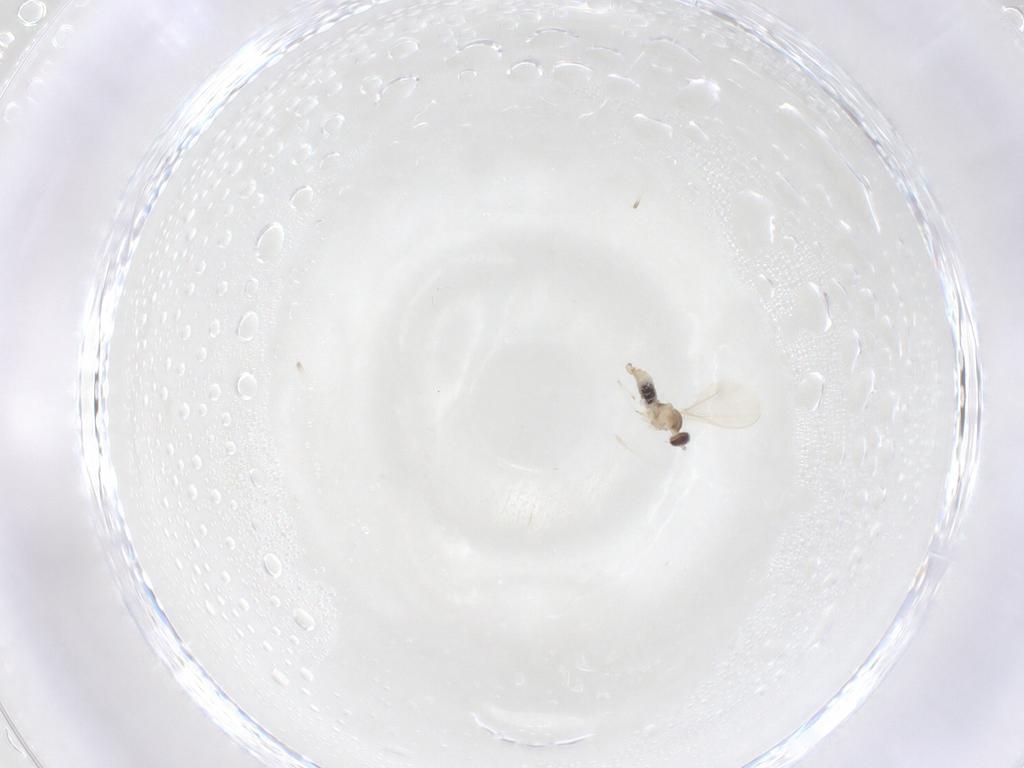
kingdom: Animalia
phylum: Arthropoda
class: Insecta
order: Diptera
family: Cecidomyiidae
